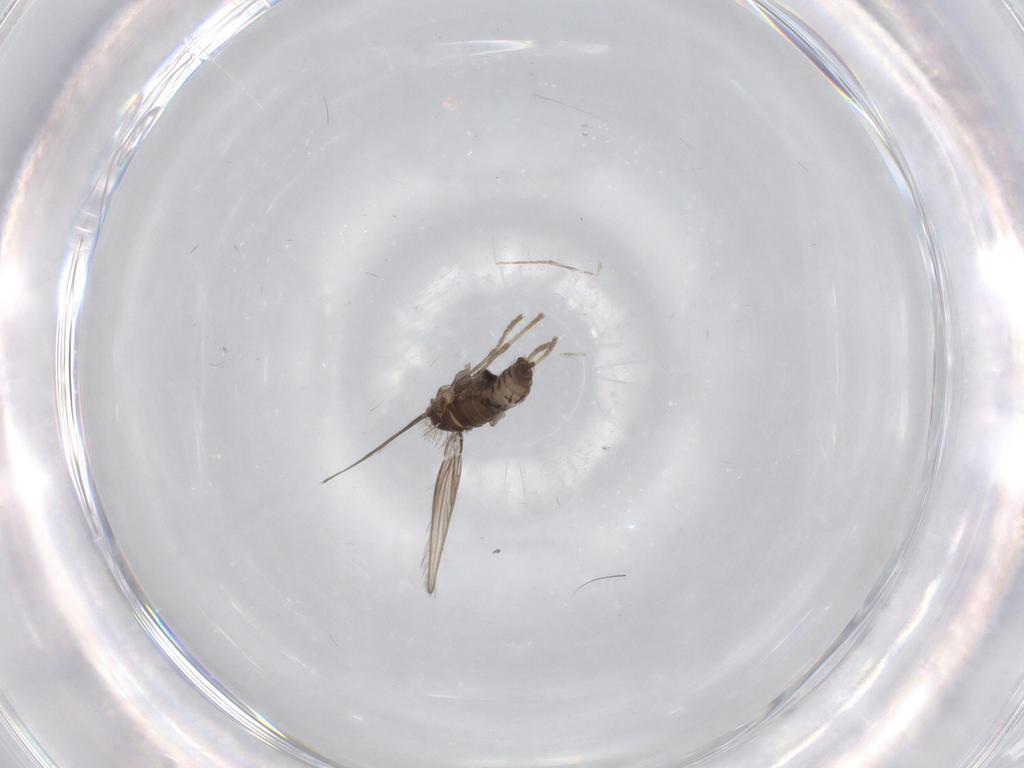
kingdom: Animalia
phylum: Arthropoda
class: Insecta
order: Diptera
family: Psychodidae
